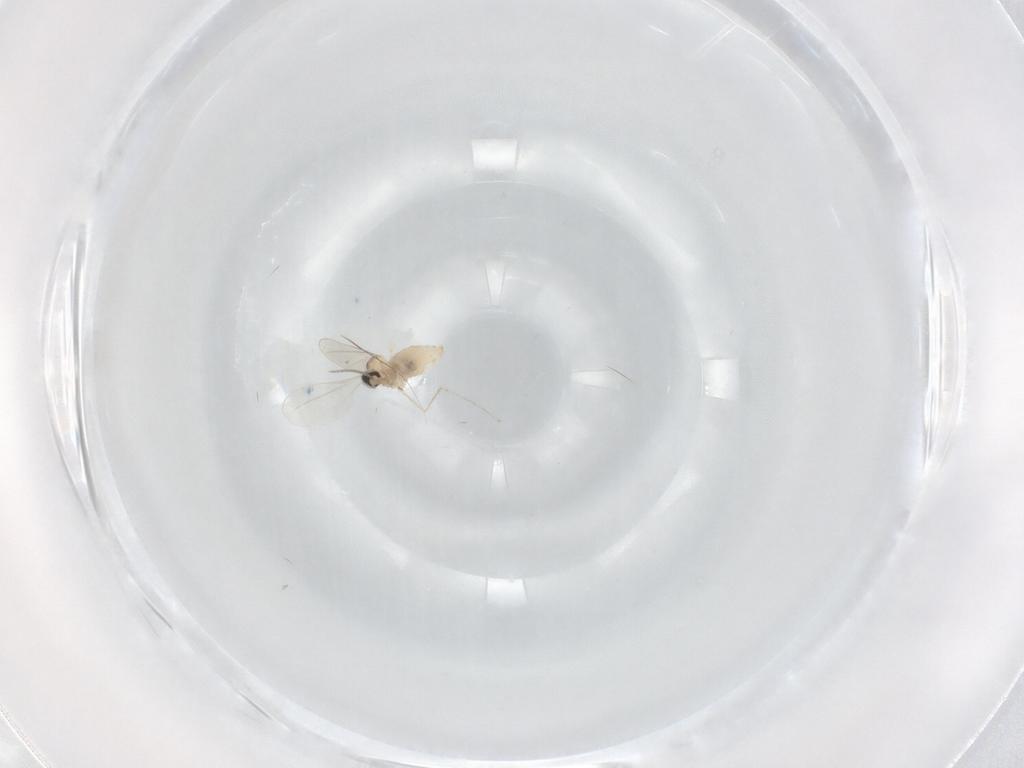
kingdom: Animalia
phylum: Arthropoda
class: Insecta
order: Diptera
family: Cecidomyiidae
